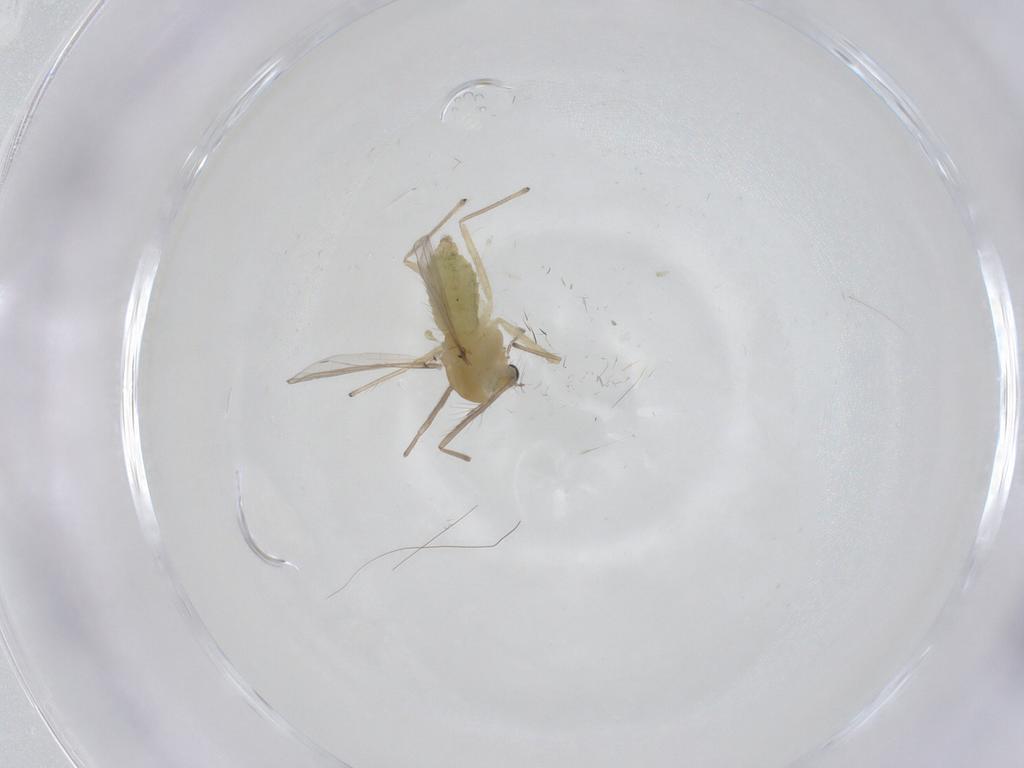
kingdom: Animalia
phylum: Arthropoda
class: Insecta
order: Diptera
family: Chironomidae
